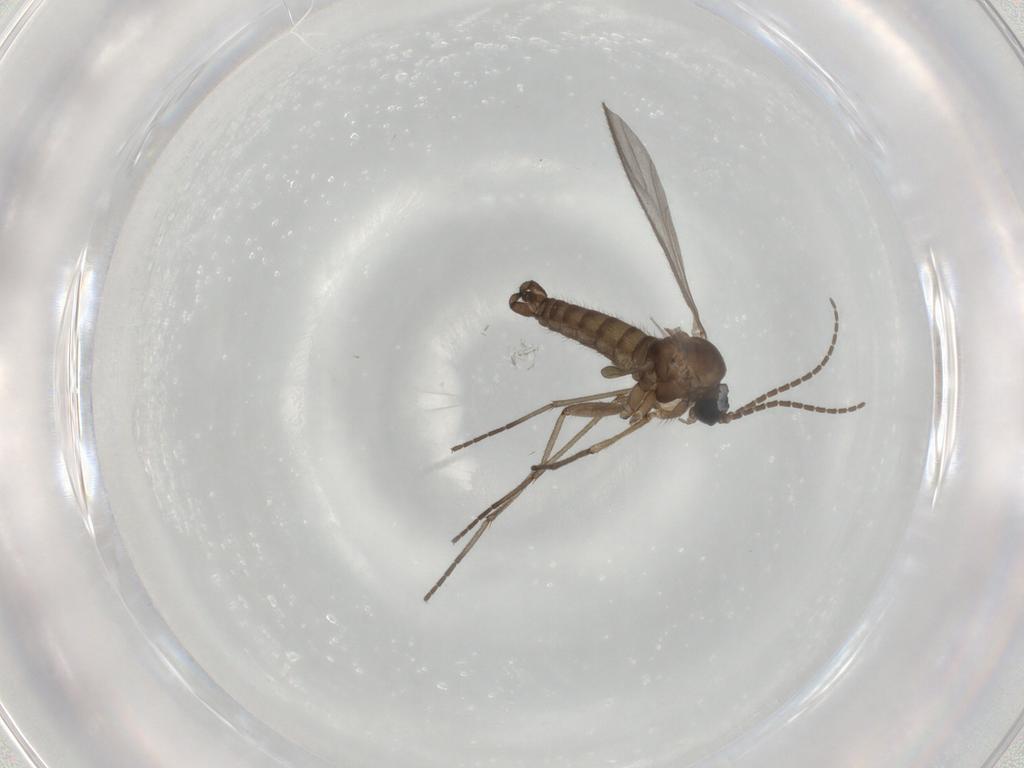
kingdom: Animalia
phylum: Arthropoda
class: Insecta
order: Diptera
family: Sciaridae
